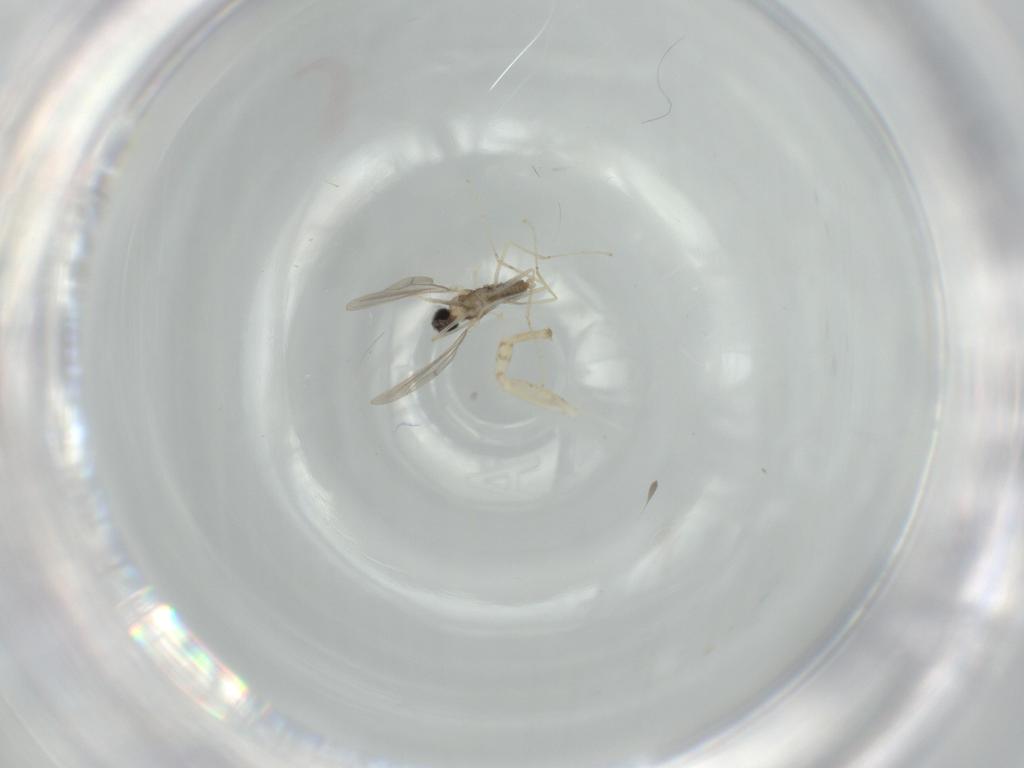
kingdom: Animalia
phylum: Arthropoda
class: Insecta
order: Diptera
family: Cecidomyiidae
